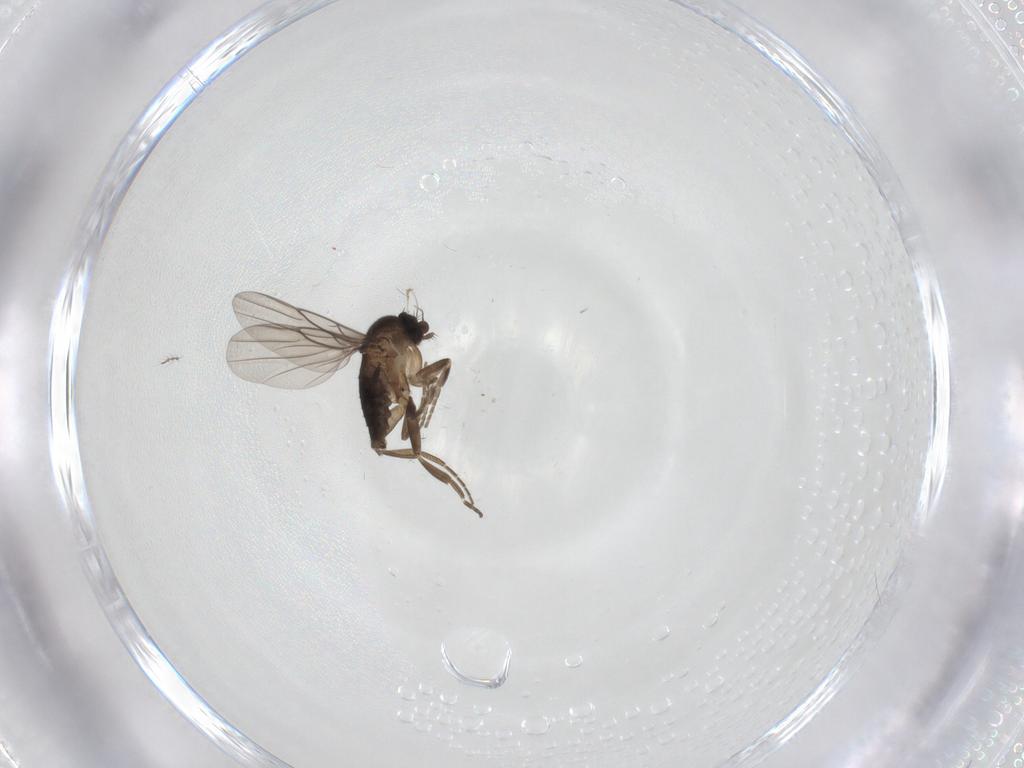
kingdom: Animalia
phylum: Arthropoda
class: Insecta
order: Diptera
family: Phoridae
